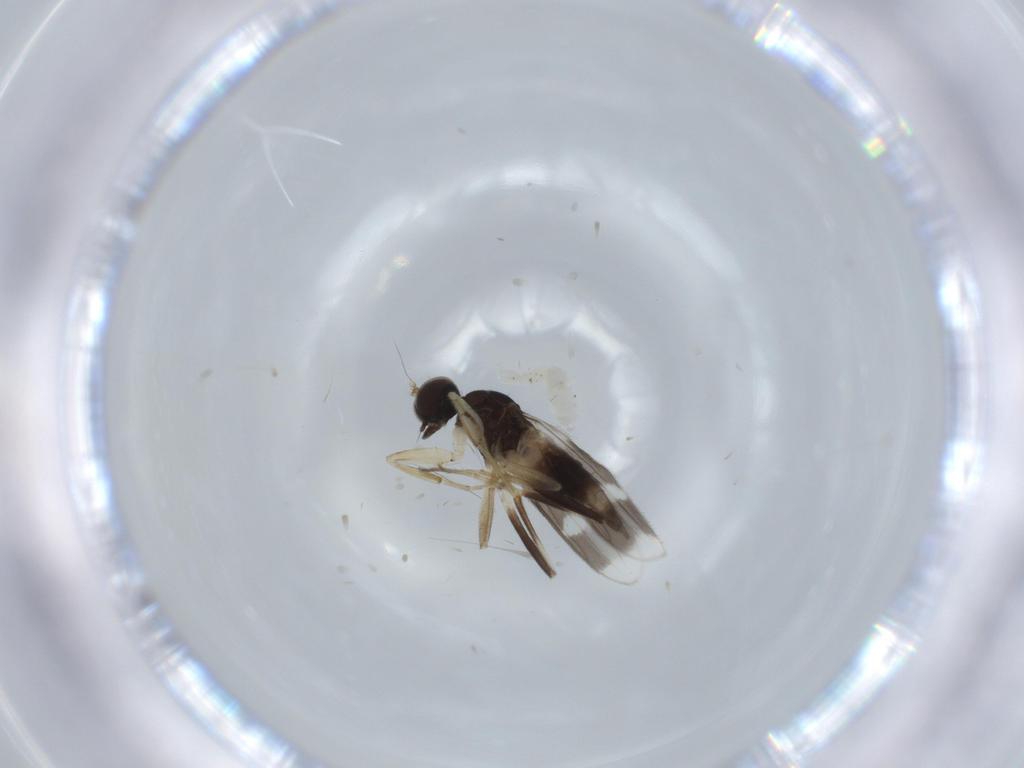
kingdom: Animalia
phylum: Arthropoda
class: Insecta
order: Diptera
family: Hybotidae
